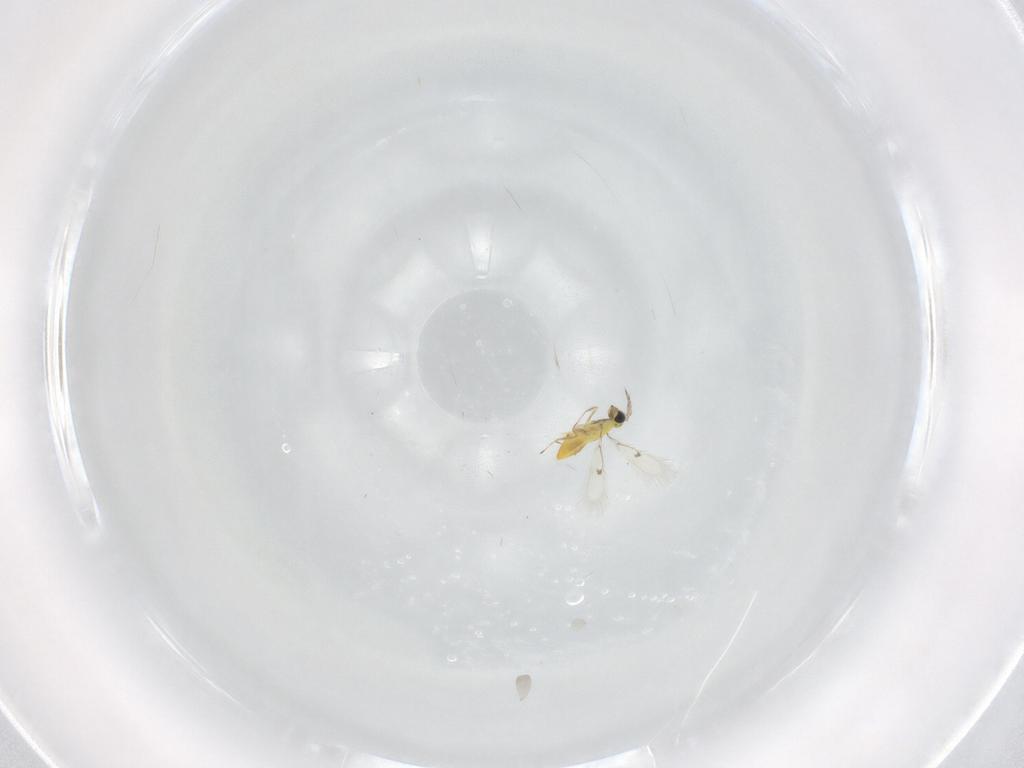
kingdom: Animalia
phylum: Arthropoda
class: Insecta
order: Hymenoptera
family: Trichogrammatidae
